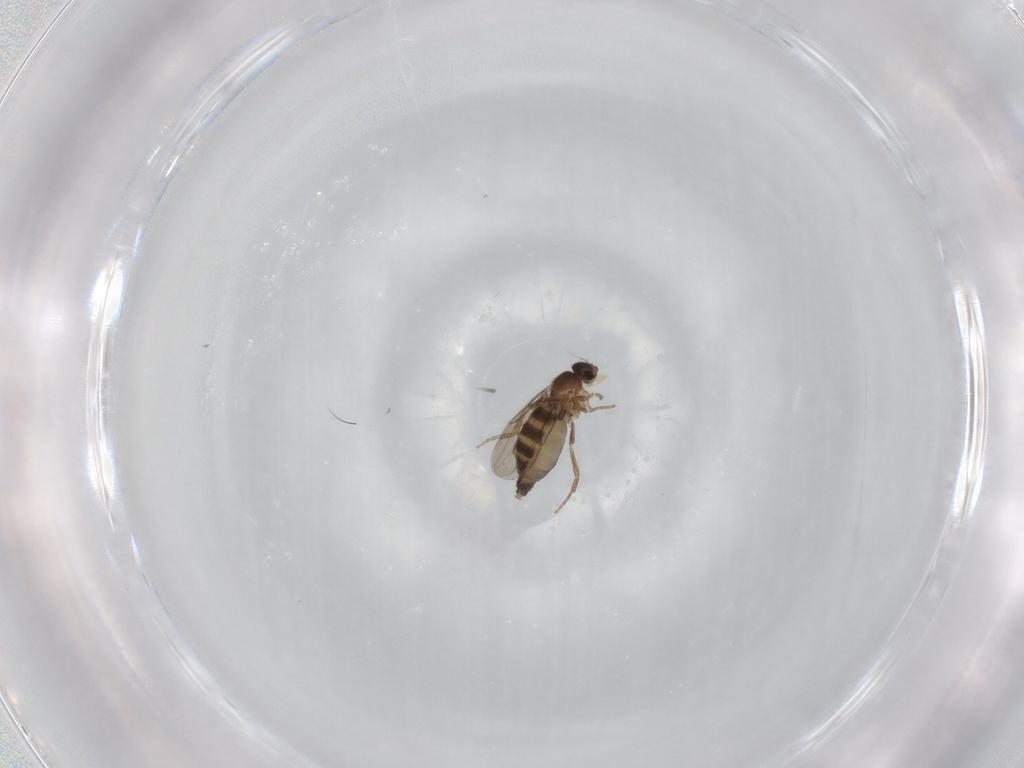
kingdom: Animalia
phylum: Arthropoda
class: Insecta
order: Diptera
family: Phoridae
